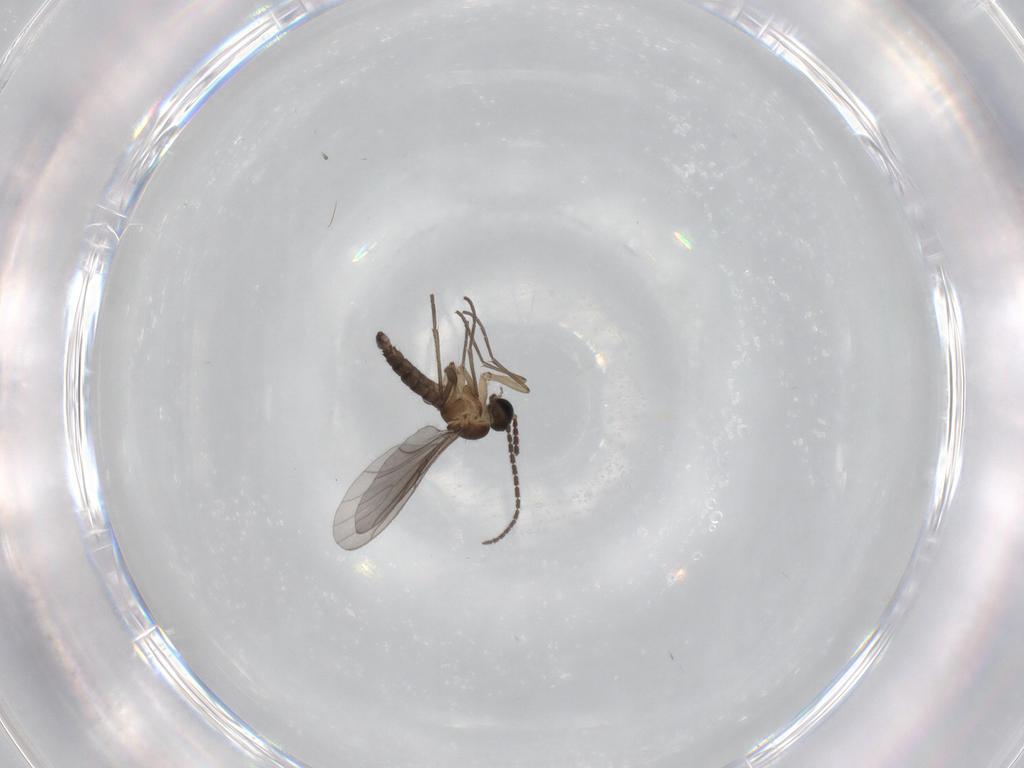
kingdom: Animalia
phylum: Arthropoda
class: Insecta
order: Diptera
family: Sciaridae
